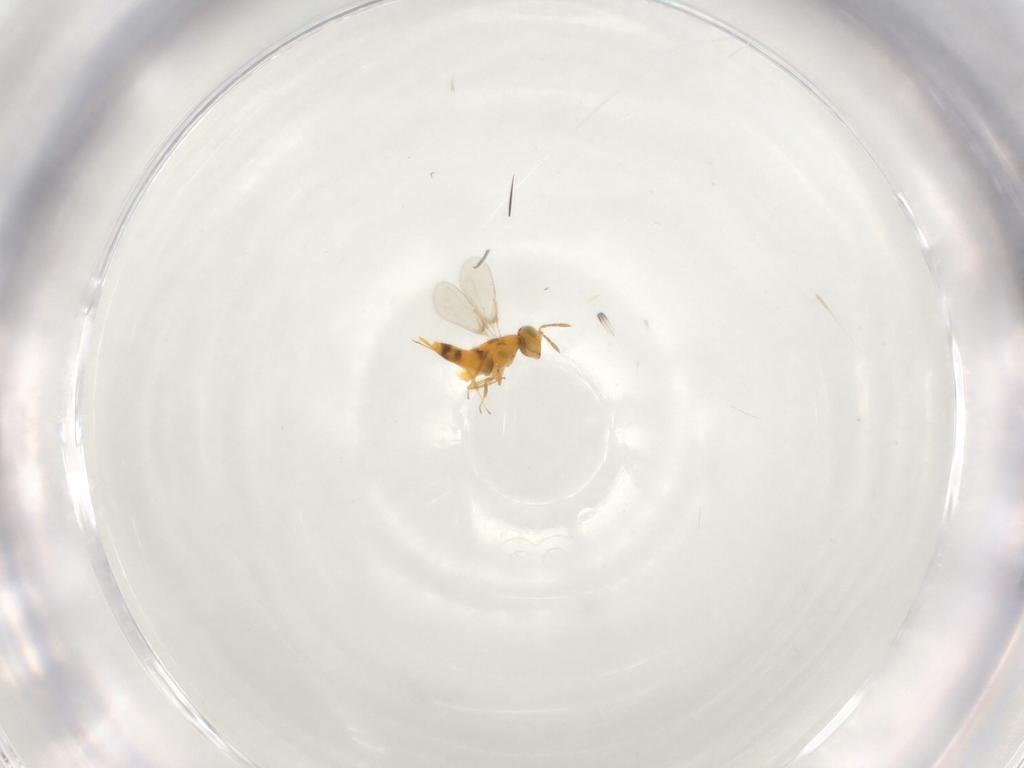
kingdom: Animalia
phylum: Arthropoda
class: Insecta
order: Hymenoptera
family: Aphelinidae
